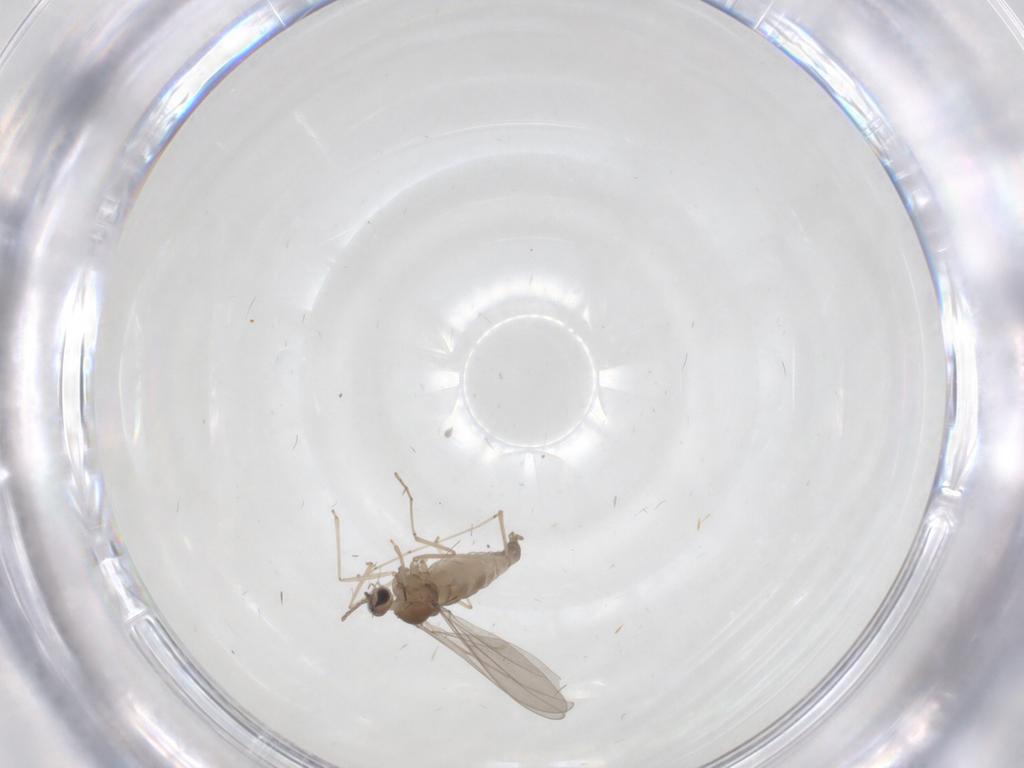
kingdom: Animalia
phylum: Arthropoda
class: Insecta
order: Diptera
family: Cecidomyiidae
